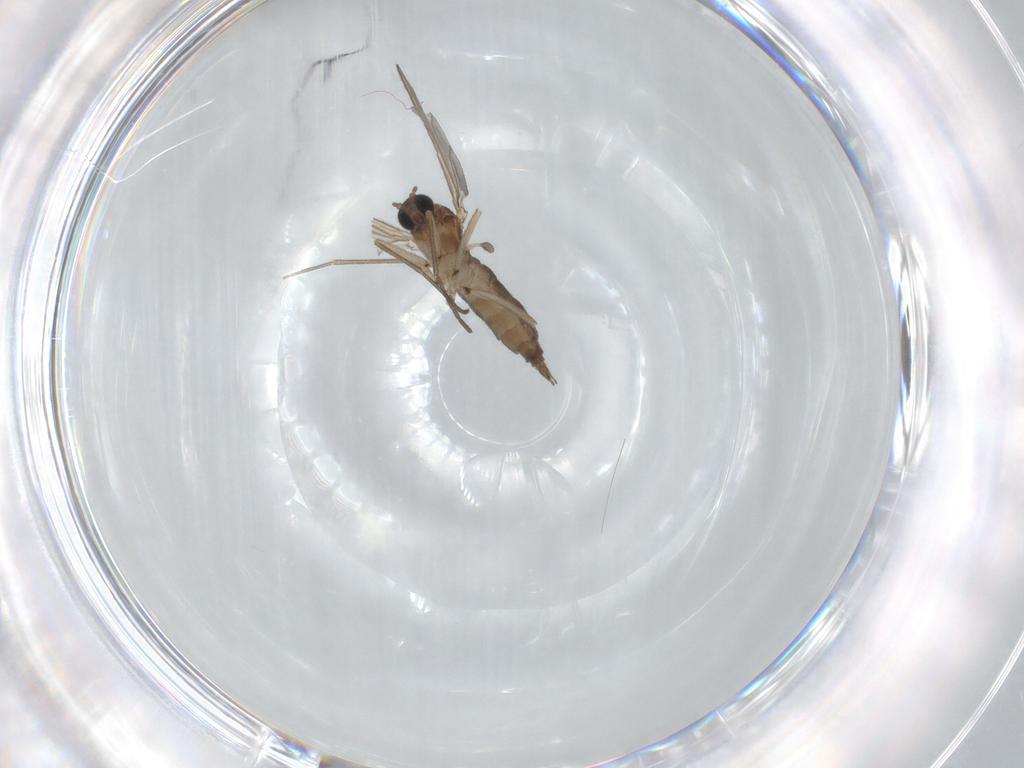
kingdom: Animalia
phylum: Arthropoda
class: Insecta
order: Diptera
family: Sciaridae
